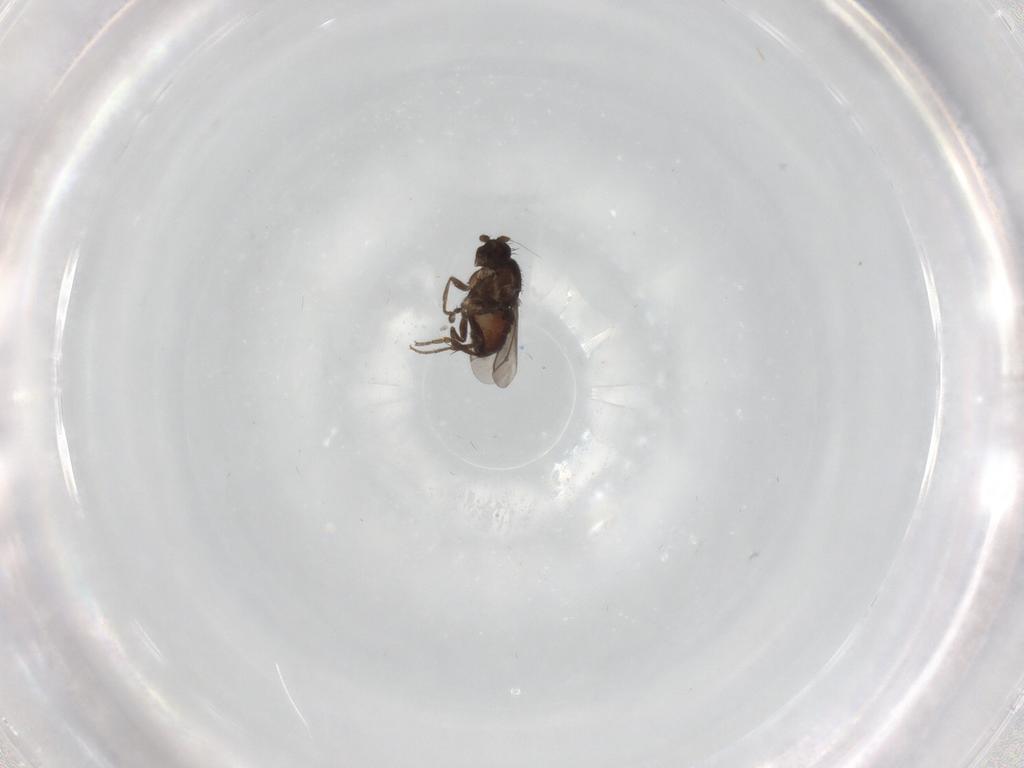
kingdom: Animalia
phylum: Arthropoda
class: Insecta
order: Diptera
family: Sphaeroceridae
